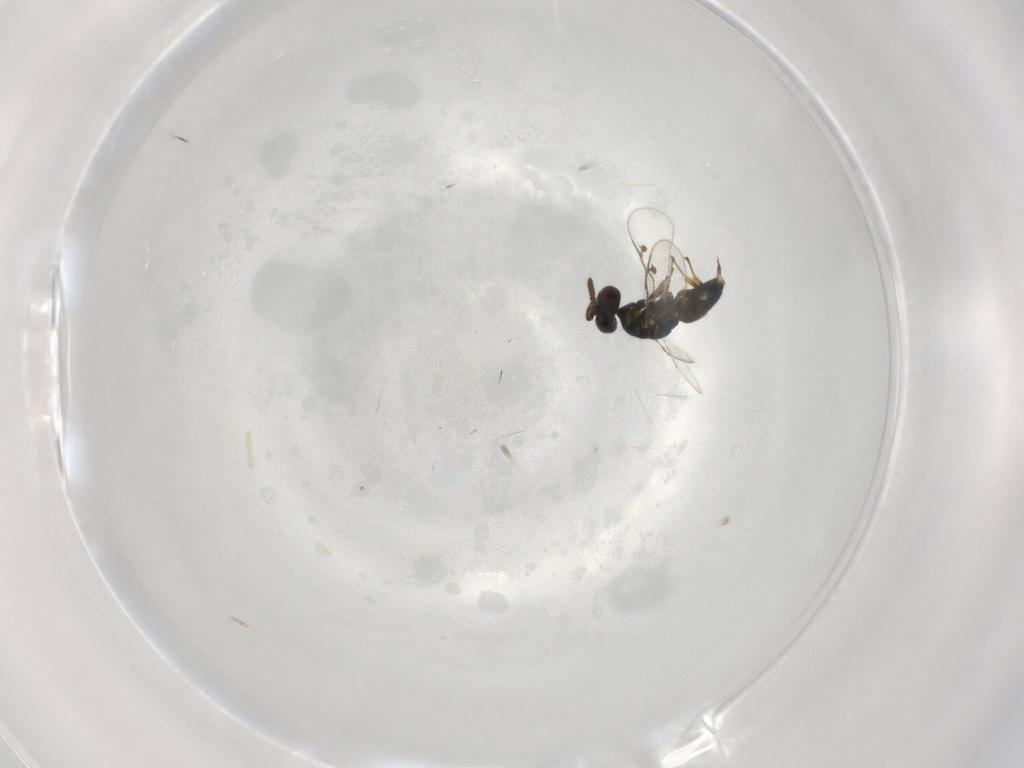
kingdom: Animalia
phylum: Arthropoda
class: Insecta
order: Hymenoptera
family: Pirenidae
